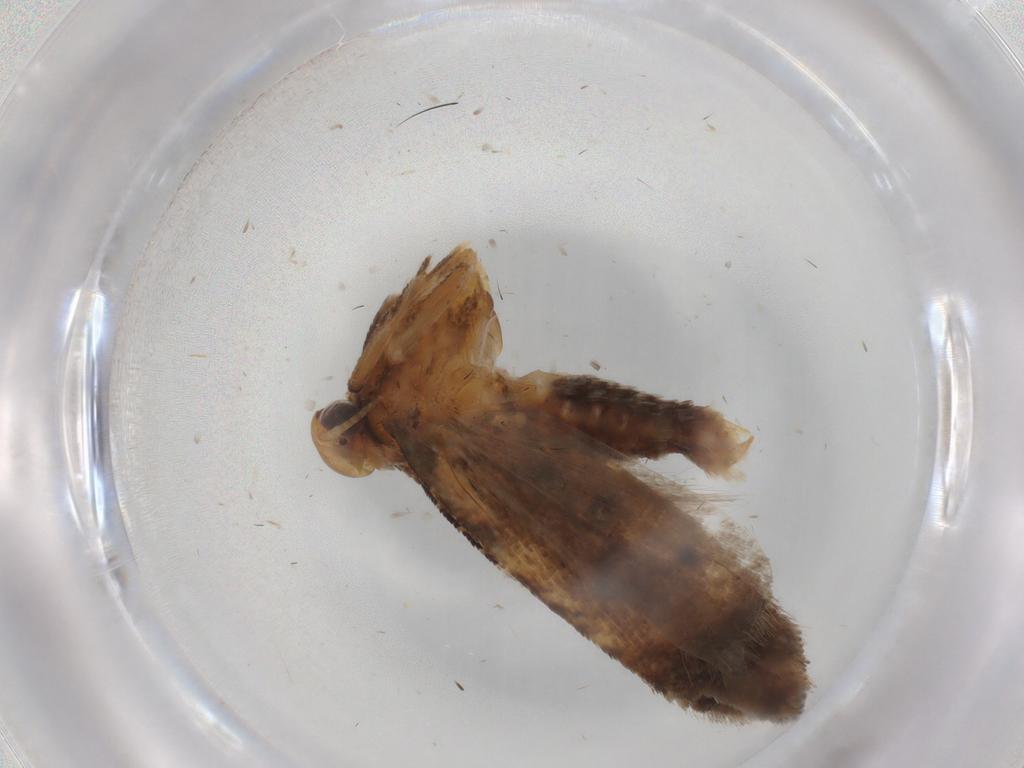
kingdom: Animalia
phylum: Arthropoda
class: Insecta
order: Lepidoptera
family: Gelechiidae
